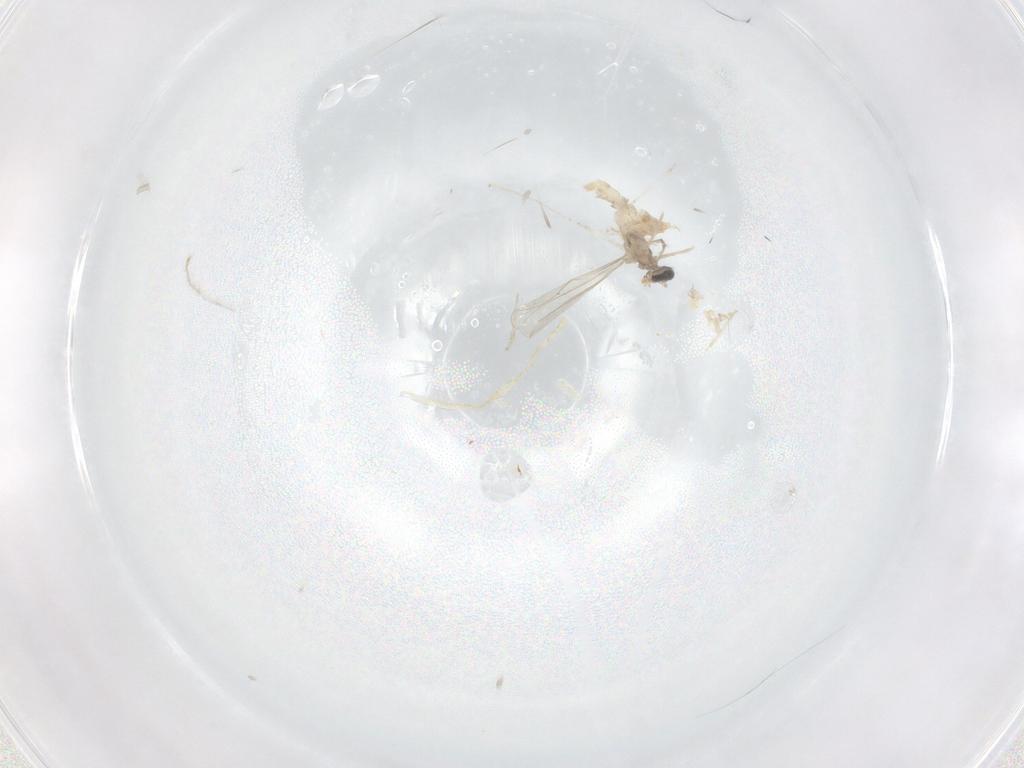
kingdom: Animalia
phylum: Arthropoda
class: Insecta
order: Diptera
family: Cecidomyiidae
